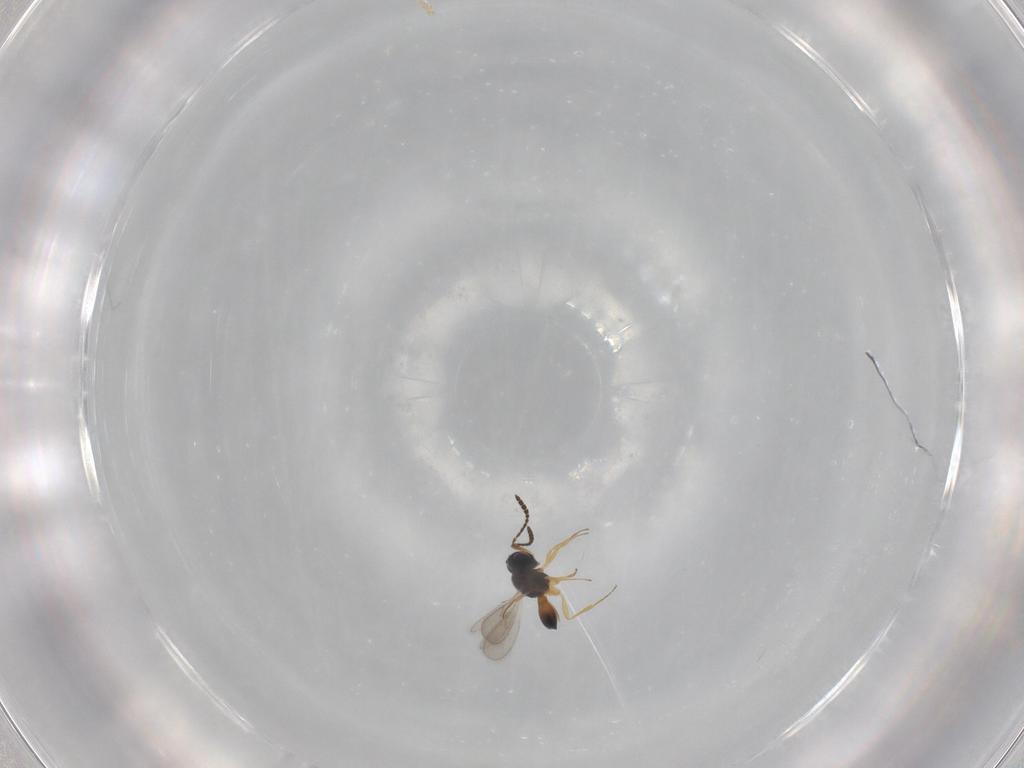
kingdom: Animalia
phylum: Arthropoda
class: Insecta
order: Hymenoptera
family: Scelionidae
